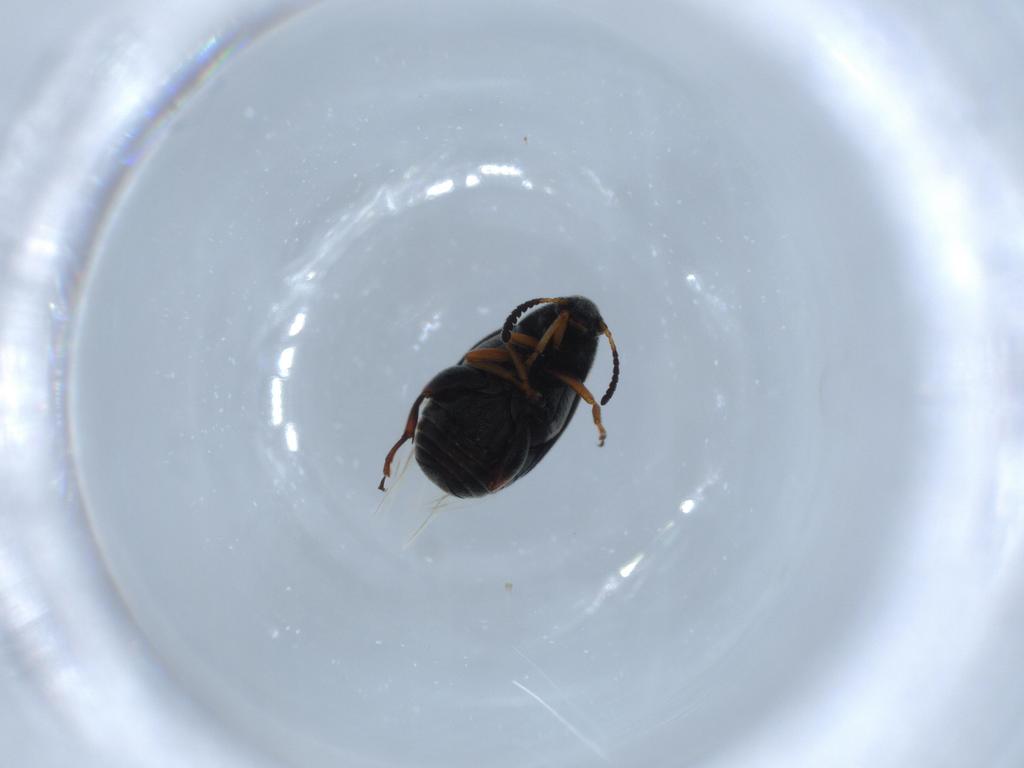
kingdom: Animalia
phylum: Arthropoda
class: Insecta
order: Coleoptera
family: Chrysomelidae
